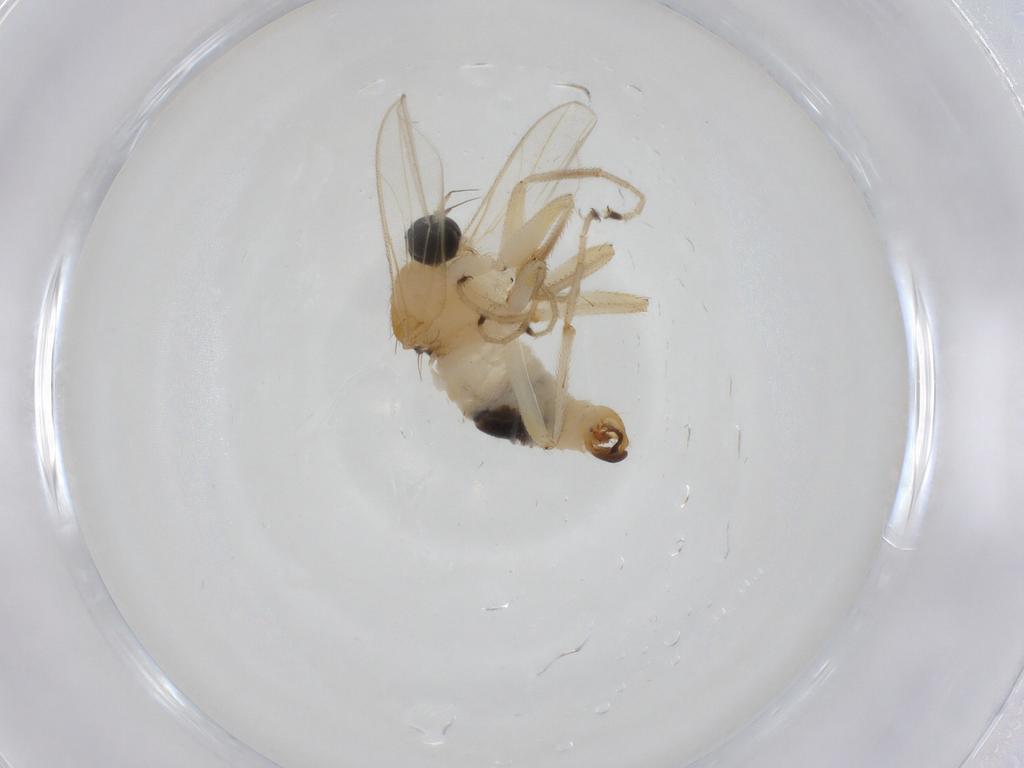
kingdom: Animalia
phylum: Arthropoda
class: Insecta
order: Diptera
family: Hybotidae
